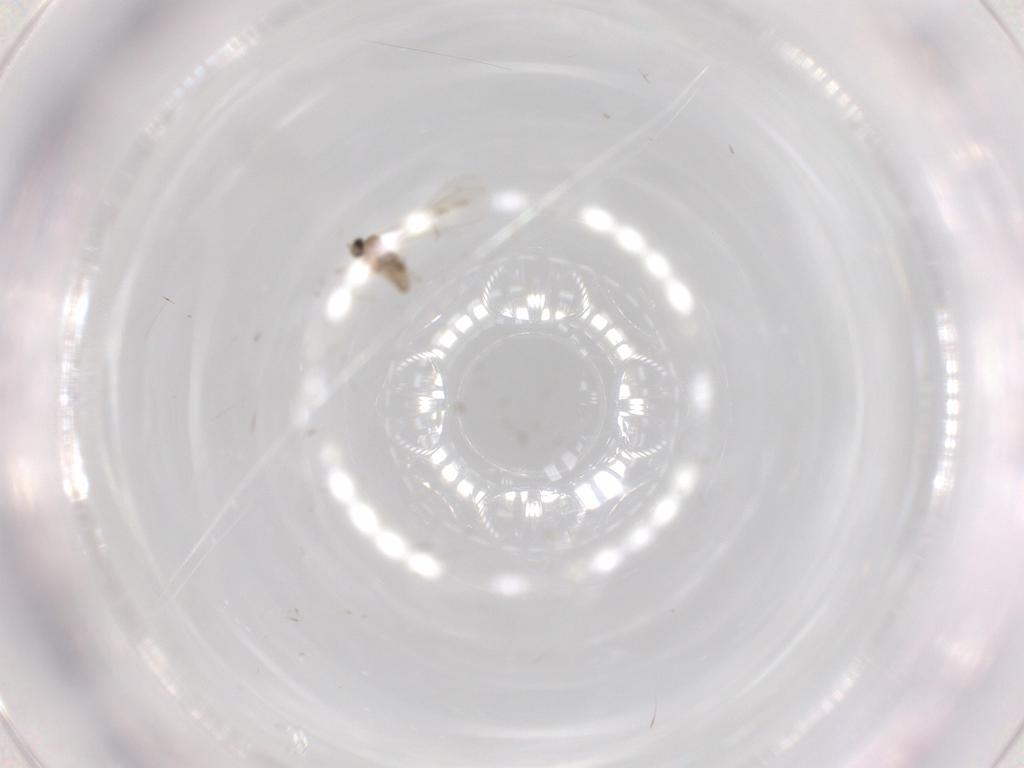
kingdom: Animalia
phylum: Arthropoda
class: Insecta
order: Diptera
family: Cecidomyiidae
